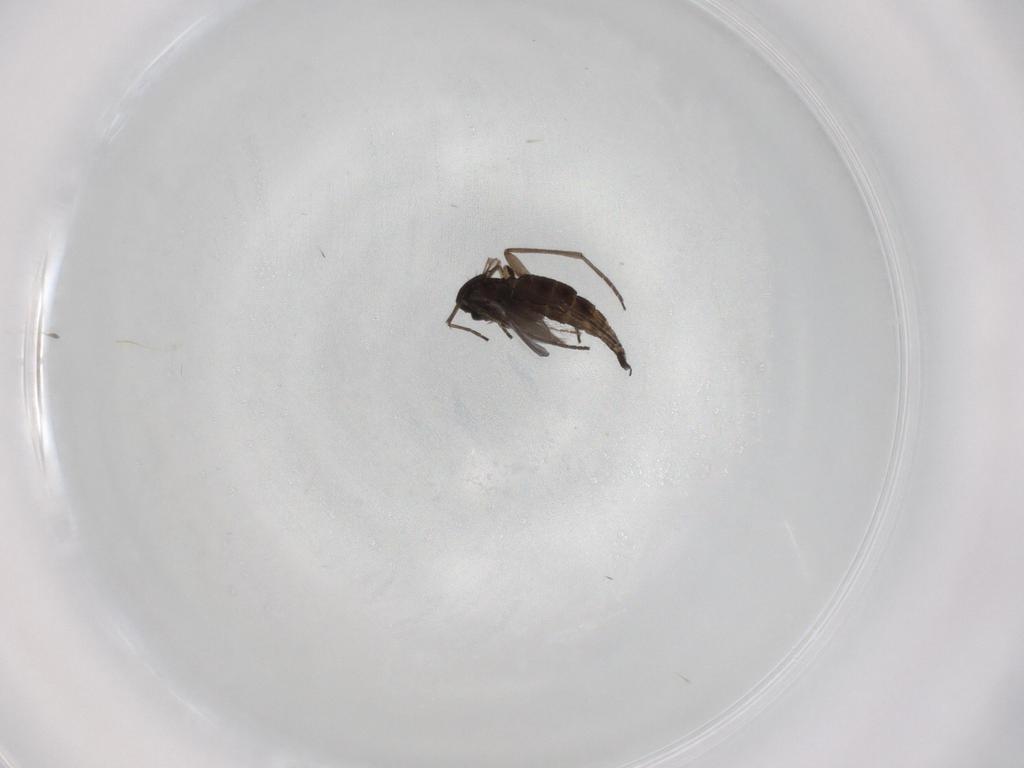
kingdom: Animalia
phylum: Arthropoda
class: Insecta
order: Diptera
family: Sciaridae
